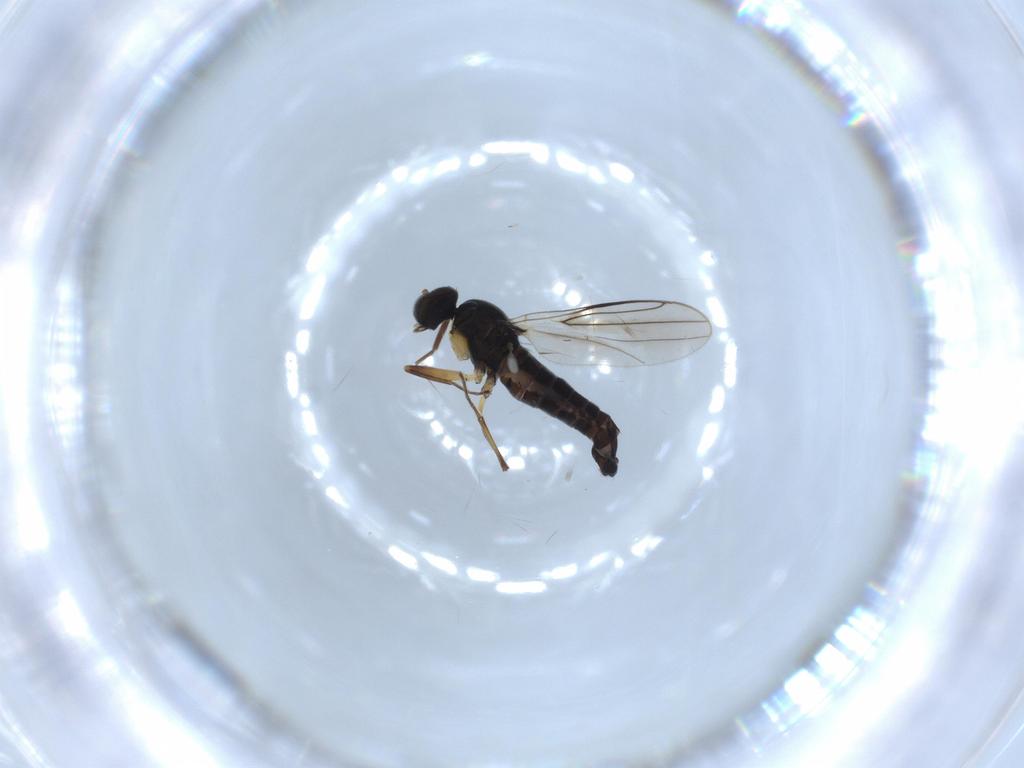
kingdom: Animalia
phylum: Arthropoda
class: Insecta
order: Diptera
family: Hybotidae
